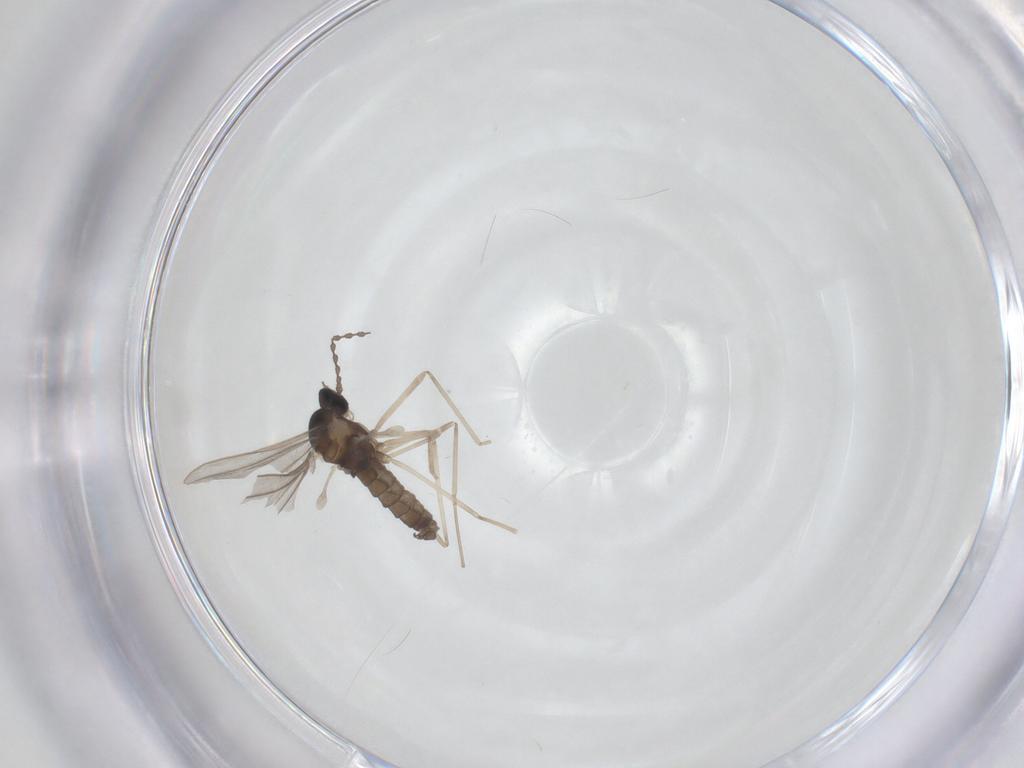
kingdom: Animalia
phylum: Arthropoda
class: Insecta
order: Diptera
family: Cecidomyiidae
